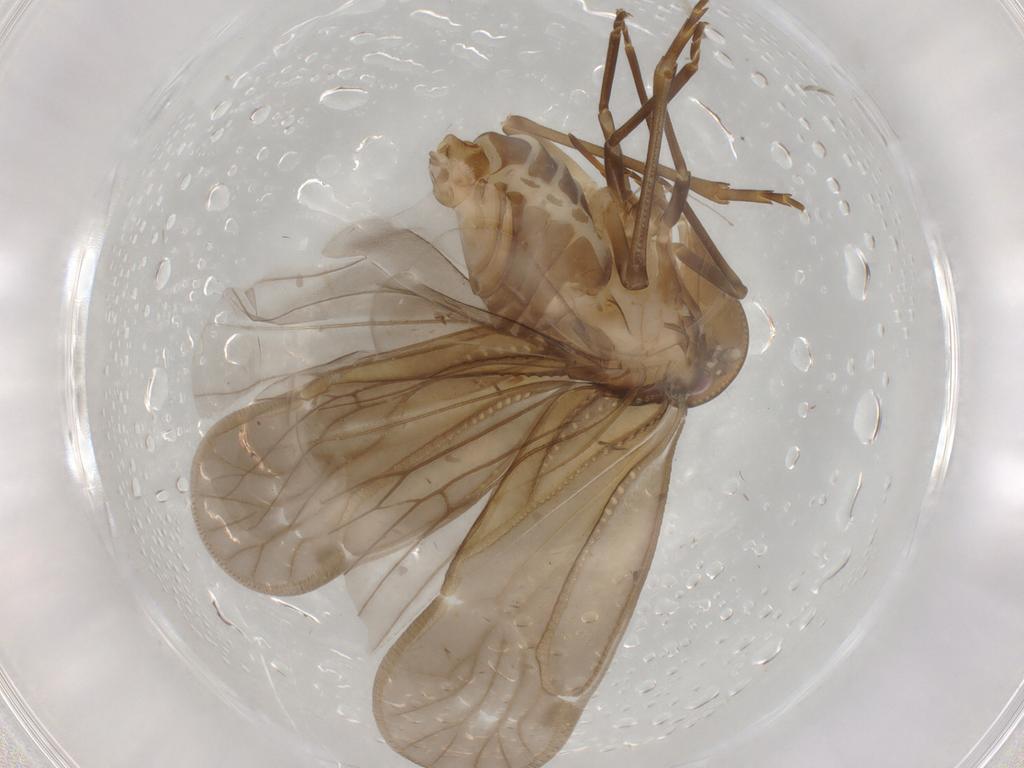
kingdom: Animalia
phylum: Arthropoda
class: Insecta
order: Hemiptera
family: Meenoplidae
